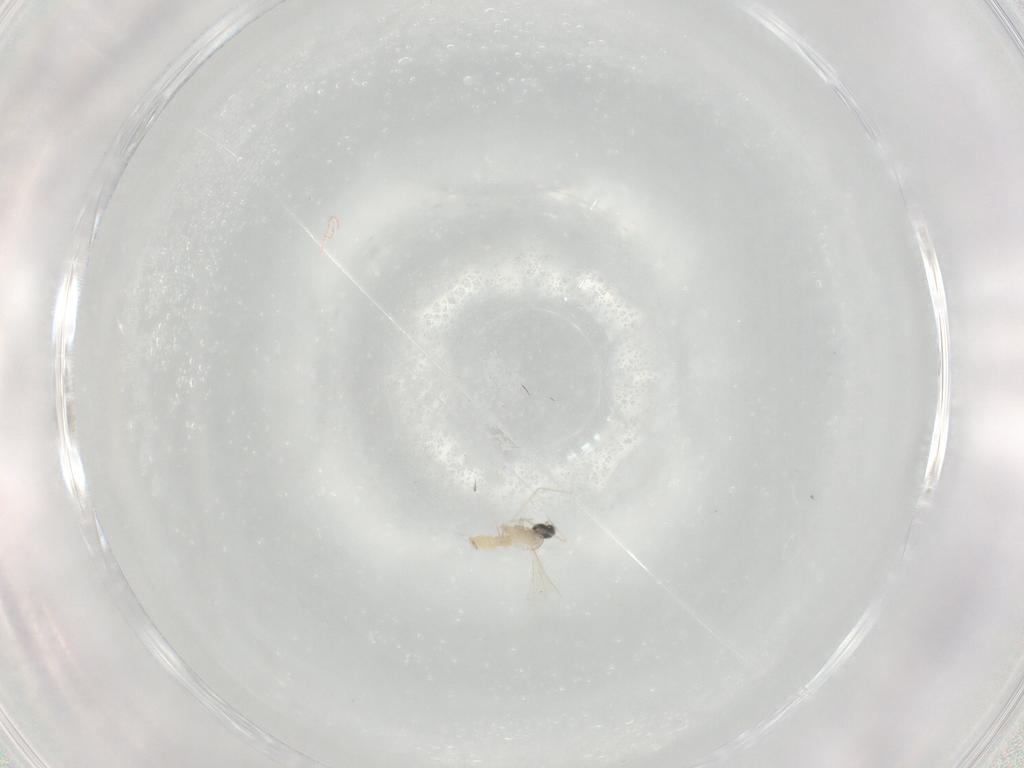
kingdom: Animalia
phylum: Arthropoda
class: Insecta
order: Diptera
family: Cecidomyiidae
